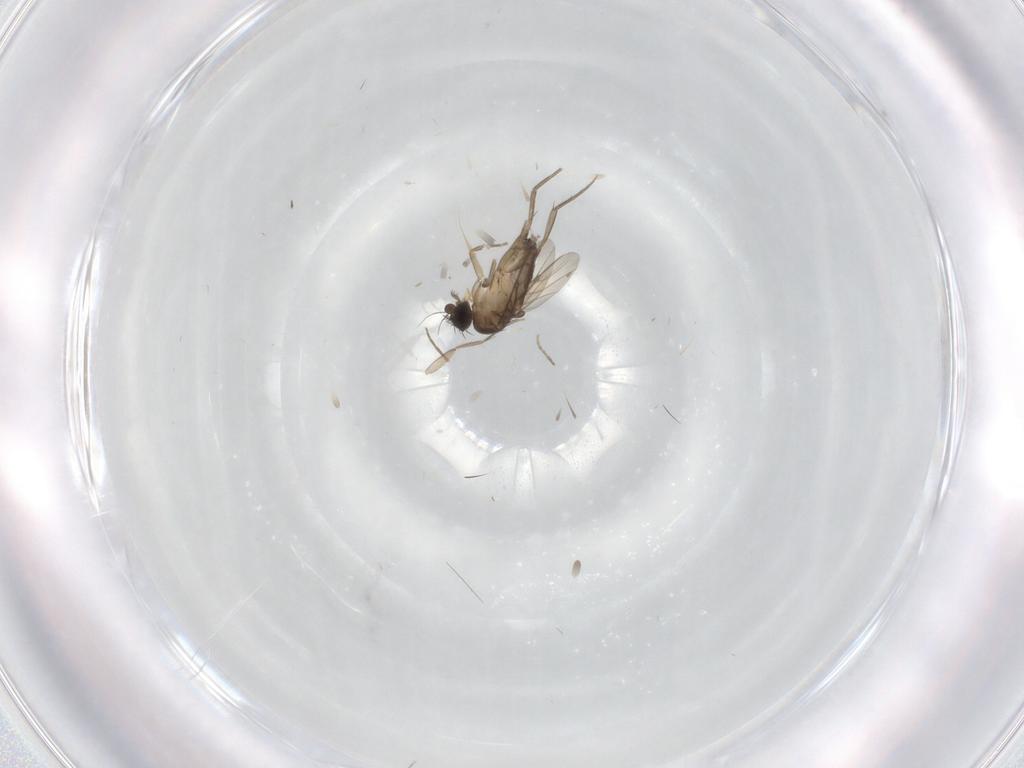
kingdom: Animalia
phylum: Arthropoda
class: Insecta
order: Diptera
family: Phoridae
